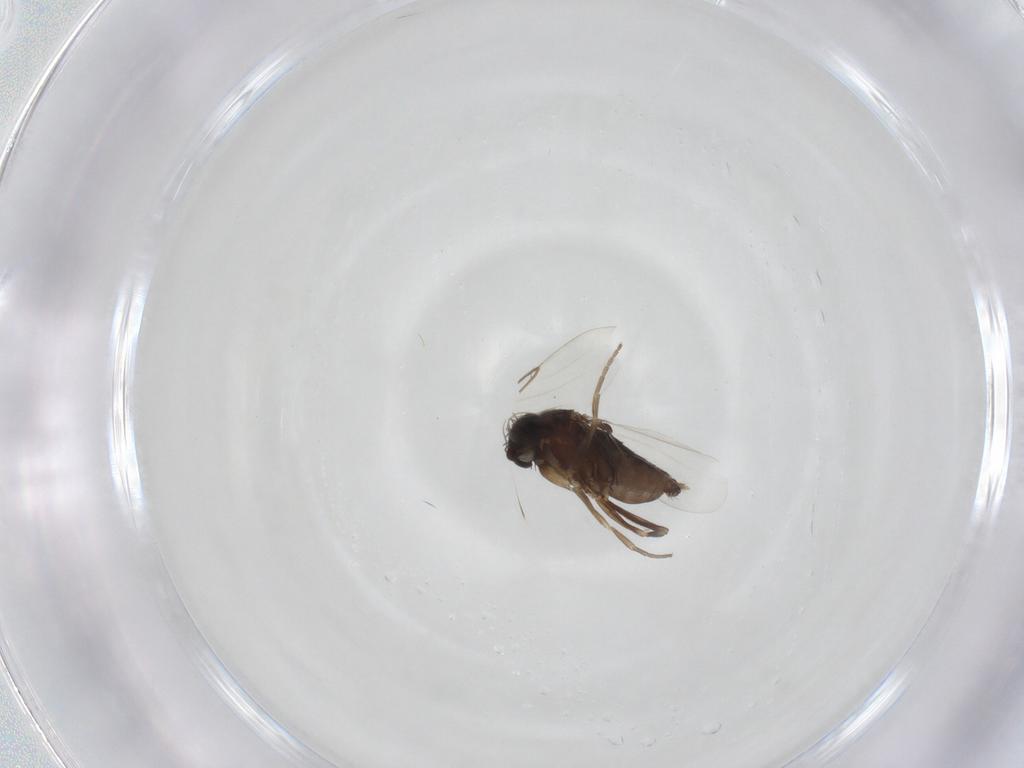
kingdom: Animalia
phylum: Arthropoda
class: Insecta
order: Diptera
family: Phoridae
